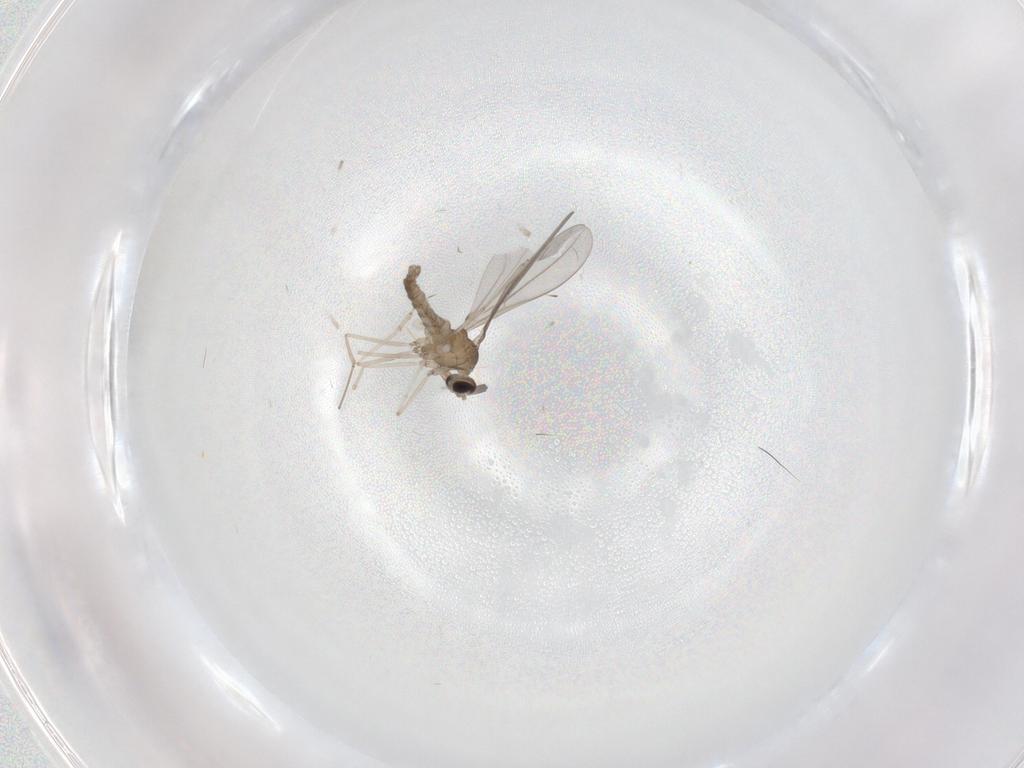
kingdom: Animalia
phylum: Arthropoda
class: Insecta
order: Diptera
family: Cecidomyiidae
